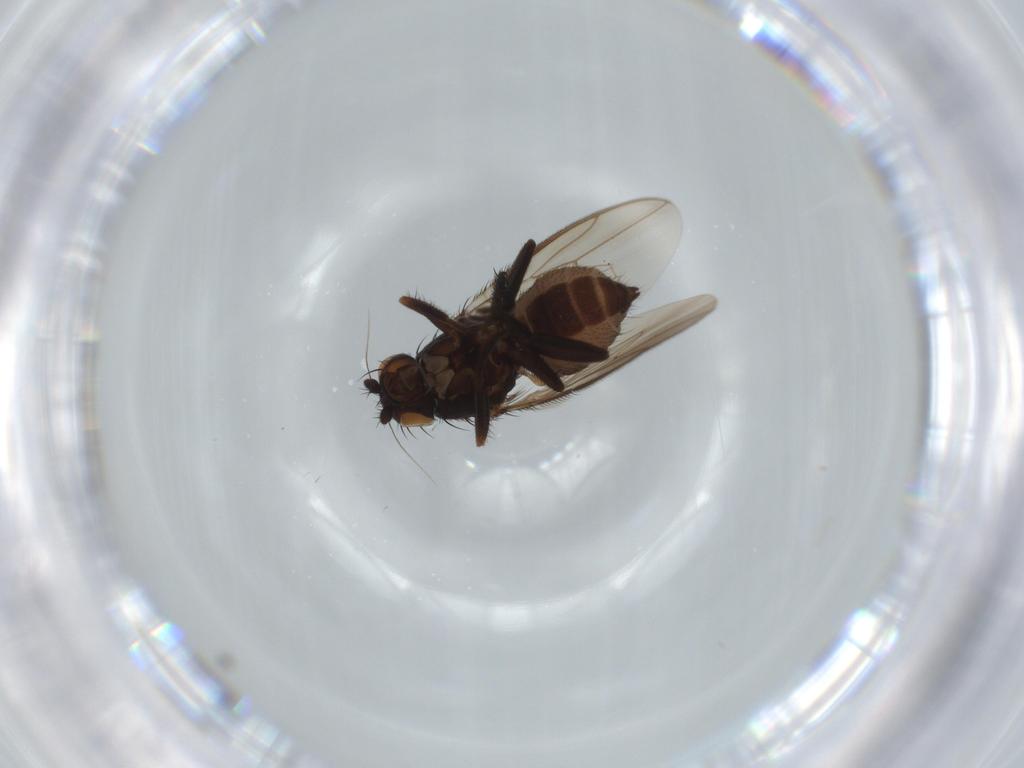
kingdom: Animalia
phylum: Arthropoda
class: Insecta
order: Diptera
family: Sphaeroceridae
